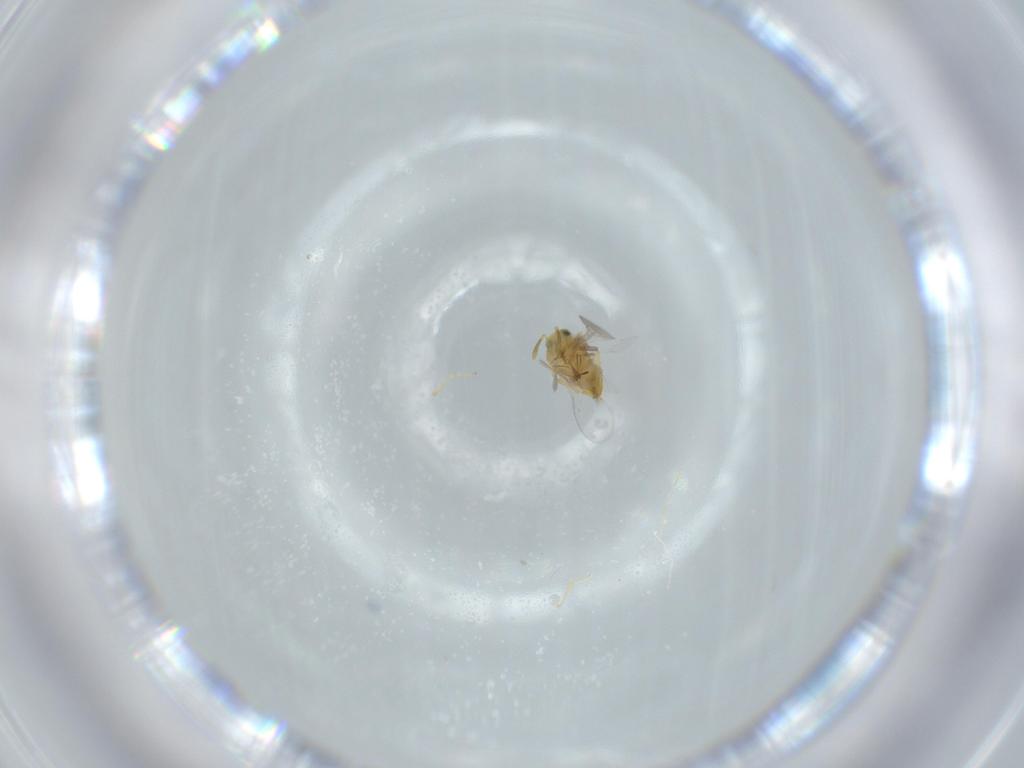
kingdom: Animalia
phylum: Arthropoda
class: Insecta
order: Hymenoptera
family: Encyrtidae
